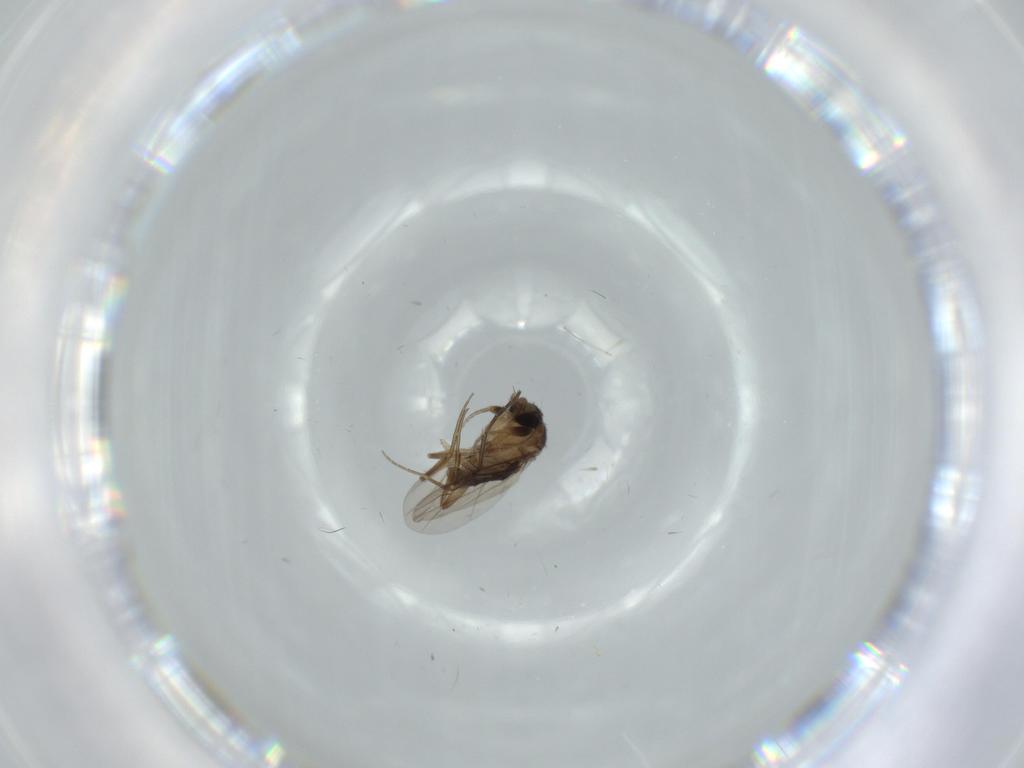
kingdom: Animalia
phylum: Arthropoda
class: Insecta
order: Diptera
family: Phoridae
